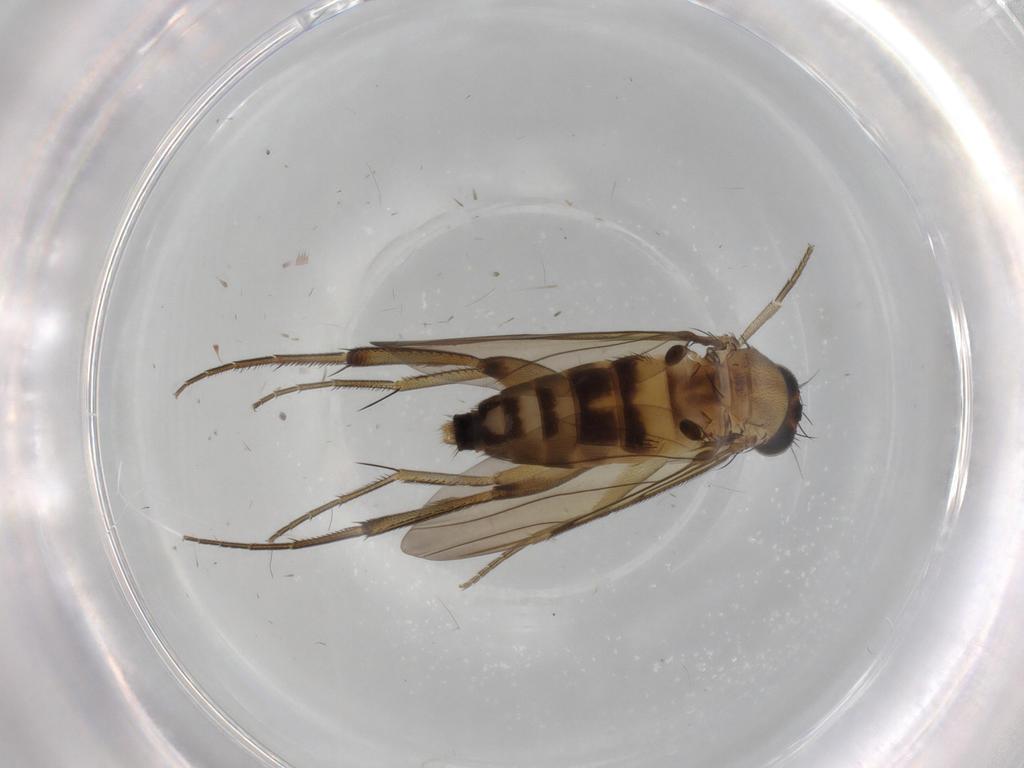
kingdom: Animalia
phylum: Arthropoda
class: Insecta
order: Diptera
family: Phoridae
